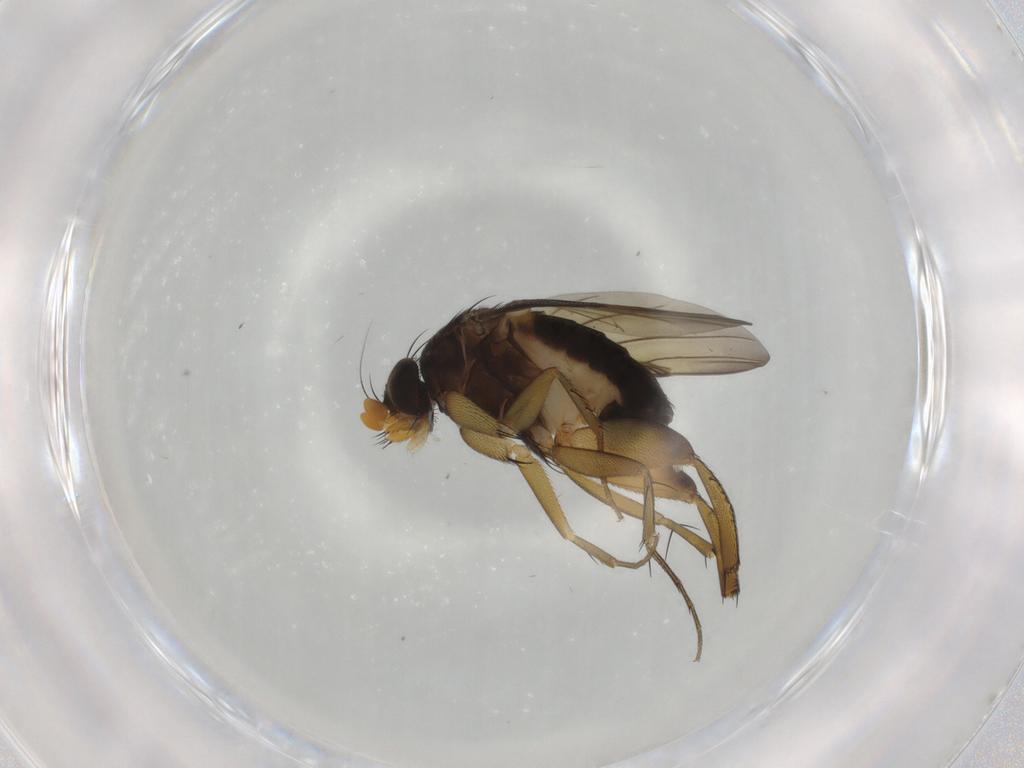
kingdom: Animalia
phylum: Arthropoda
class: Insecta
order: Diptera
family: Phoridae
